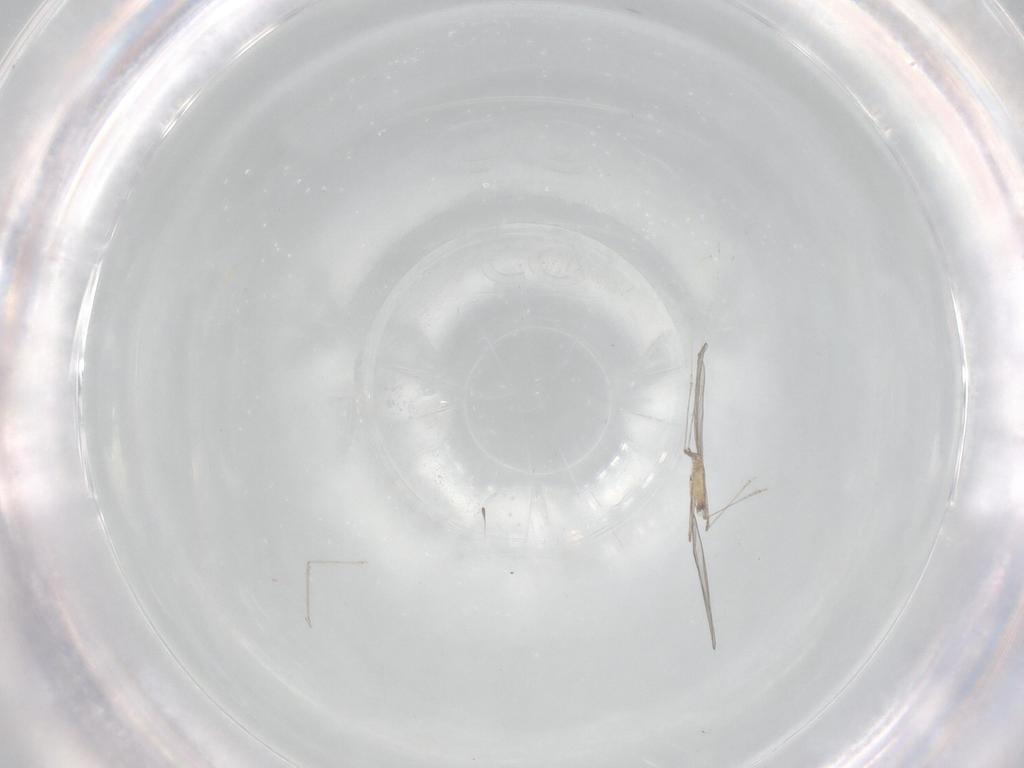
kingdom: Animalia
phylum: Arthropoda
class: Insecta
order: Diptera
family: Cecidomyiidae
